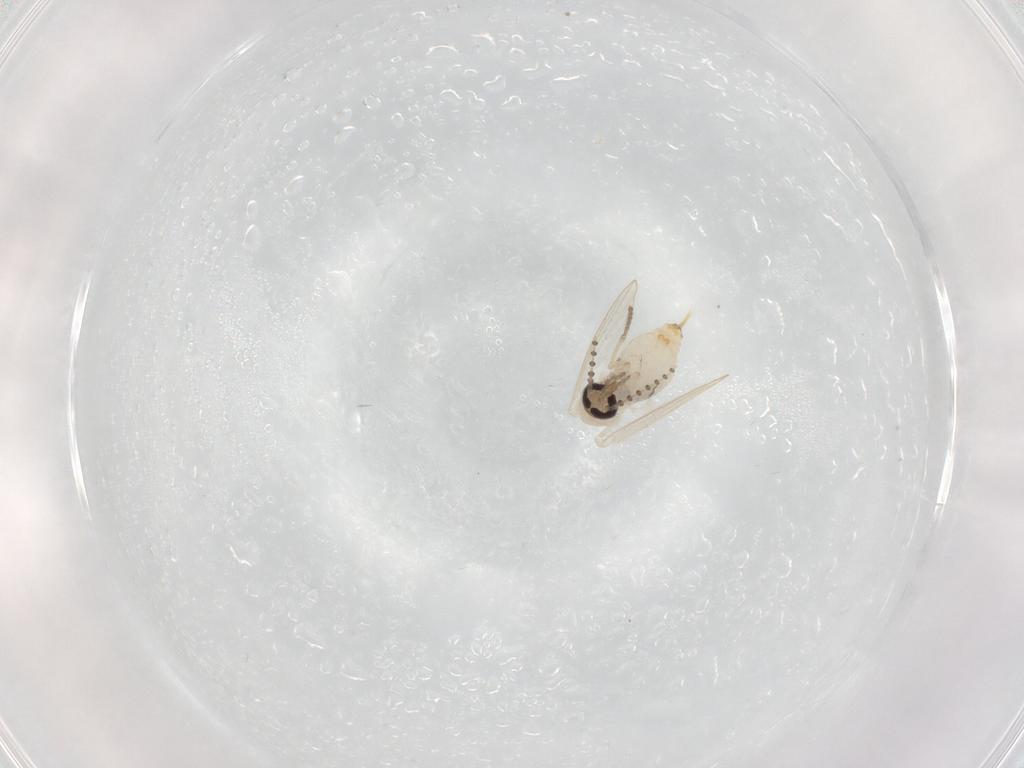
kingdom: Animalia
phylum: Arthropoda
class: Insecta
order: Diptera
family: Psychodidae
